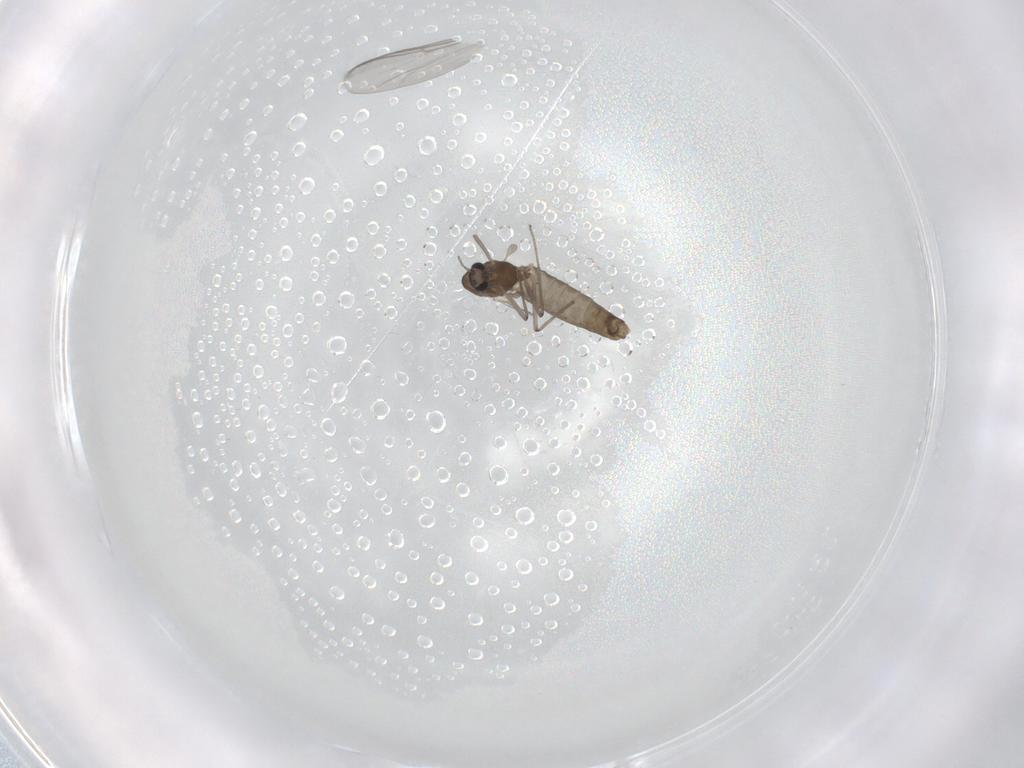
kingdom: Animalia
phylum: Arthropoda
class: Insecta
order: Diptera
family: Chironomidae
